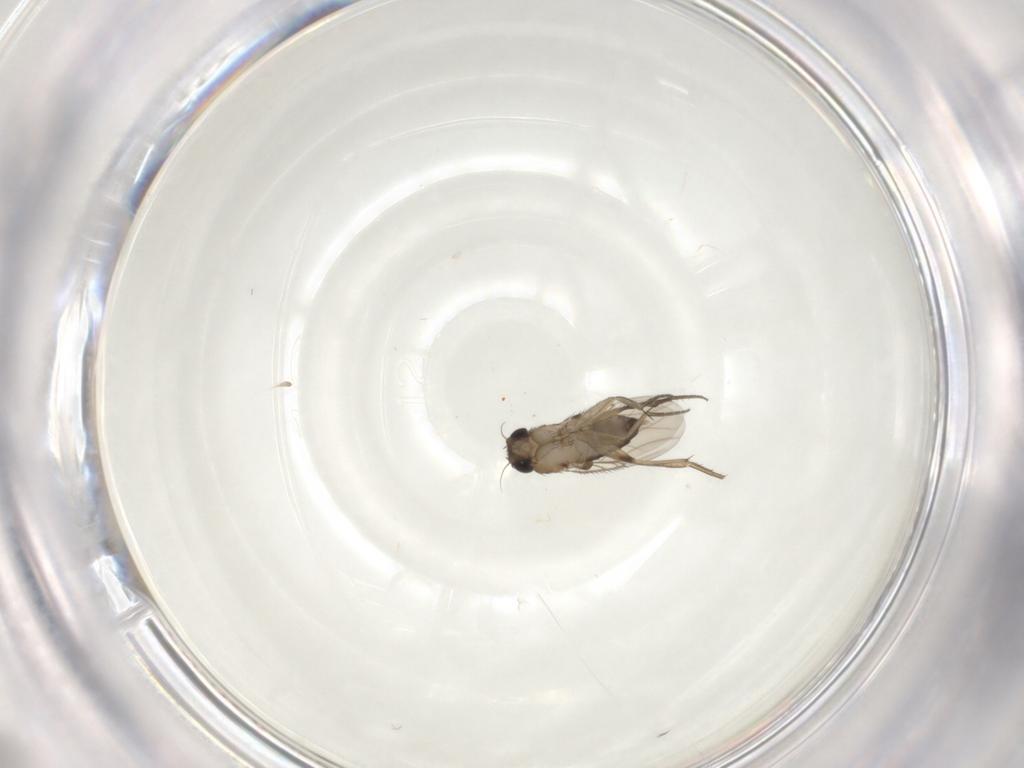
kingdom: Animalia
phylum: Arthropoda
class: Insecta
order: Diptera
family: Phoridae
